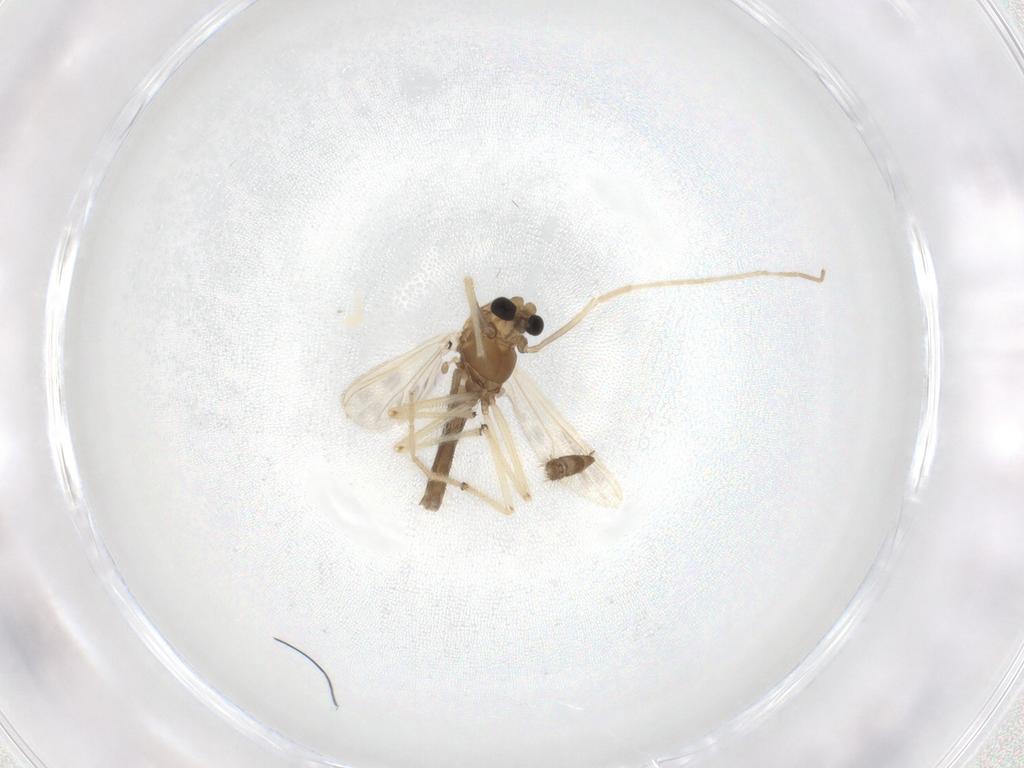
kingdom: Animalia
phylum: Arthropoda
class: Insecta
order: Diptera
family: Chironomidae
